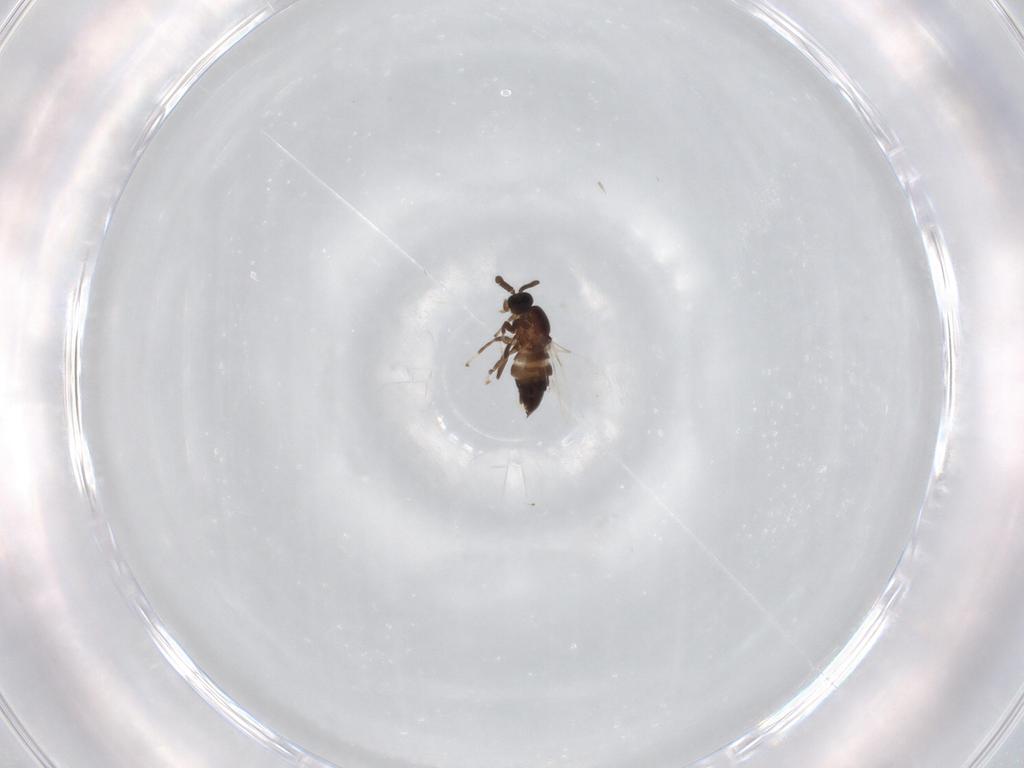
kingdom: Animalia
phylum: Arthropoda
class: Insecta
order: Diptera
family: Scatopsidae
